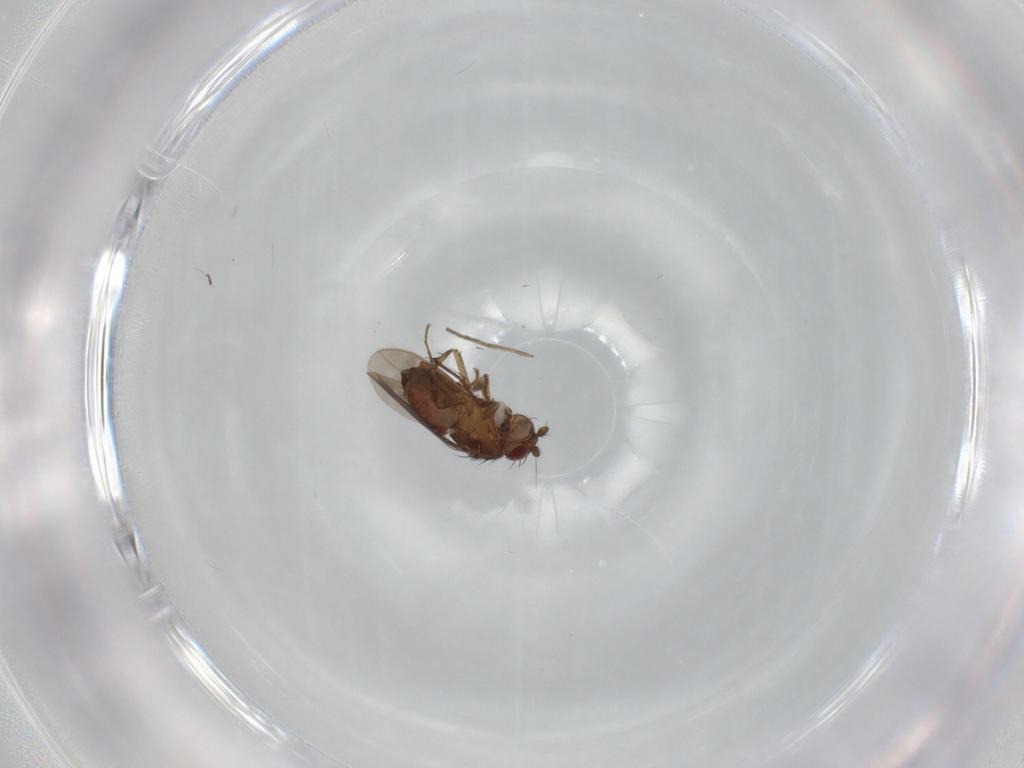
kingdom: Animalia
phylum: Arthropoda
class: Insecta
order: Diptera
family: Sphaeroceridae
